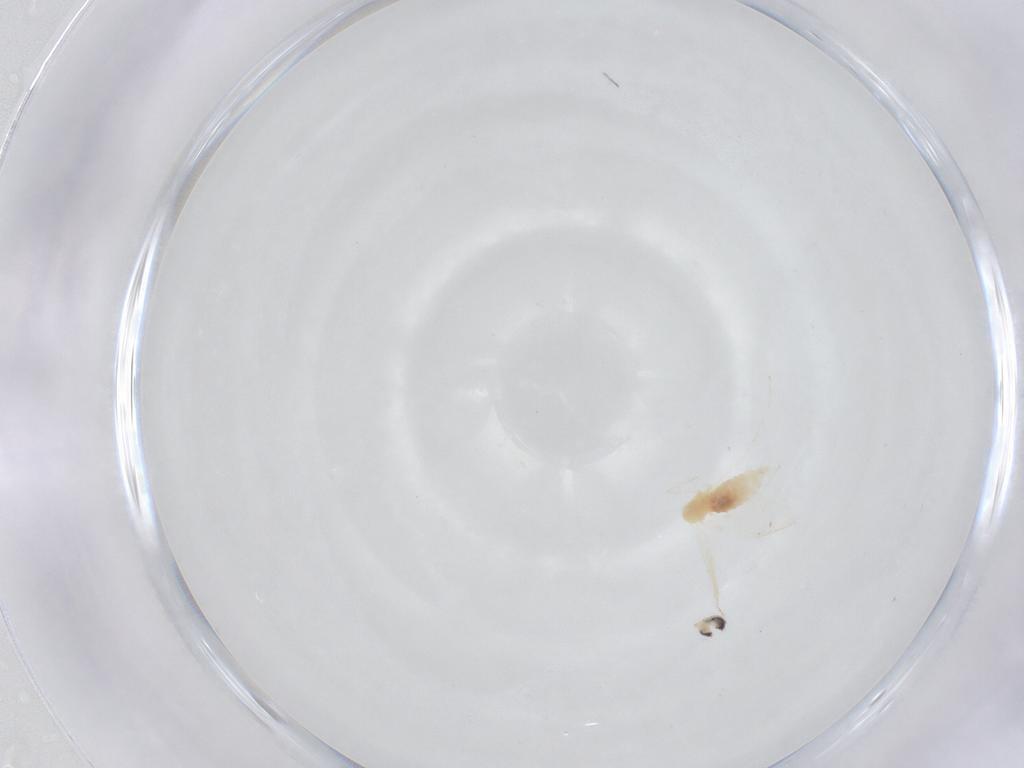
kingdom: Animalia
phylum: Arthropoda
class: Insecta
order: Diptera
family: Cecidomyiidae
